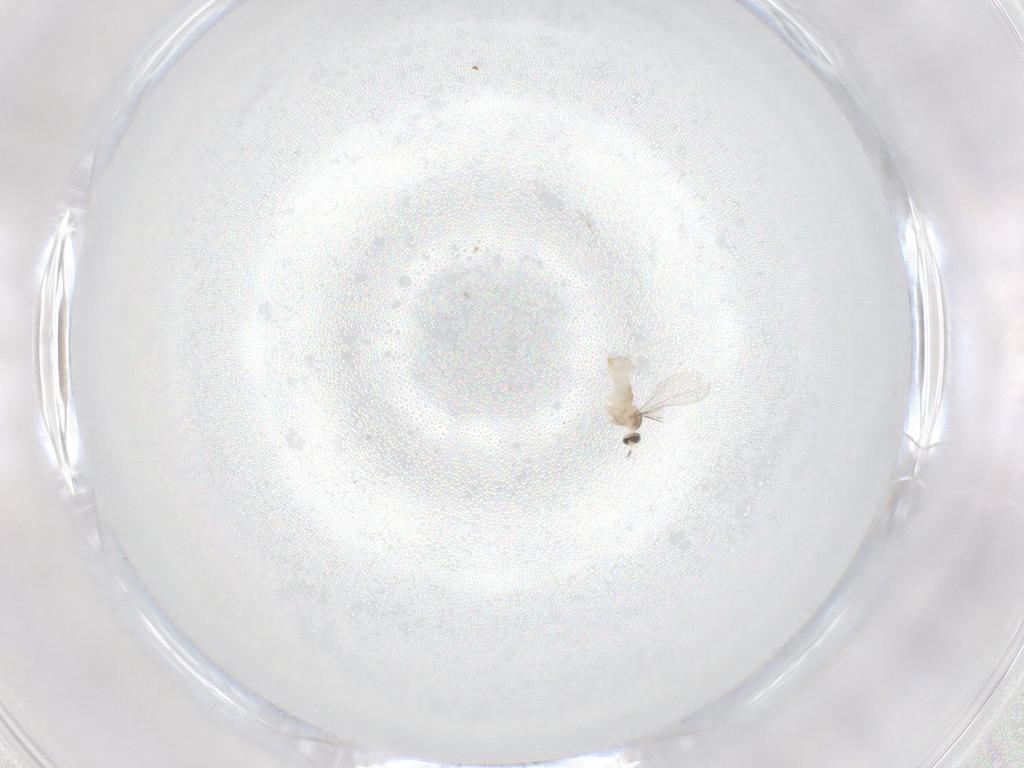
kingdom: Animalia
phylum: Arthropoda
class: Insecta
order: Diptera
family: Cecidomyiidae
